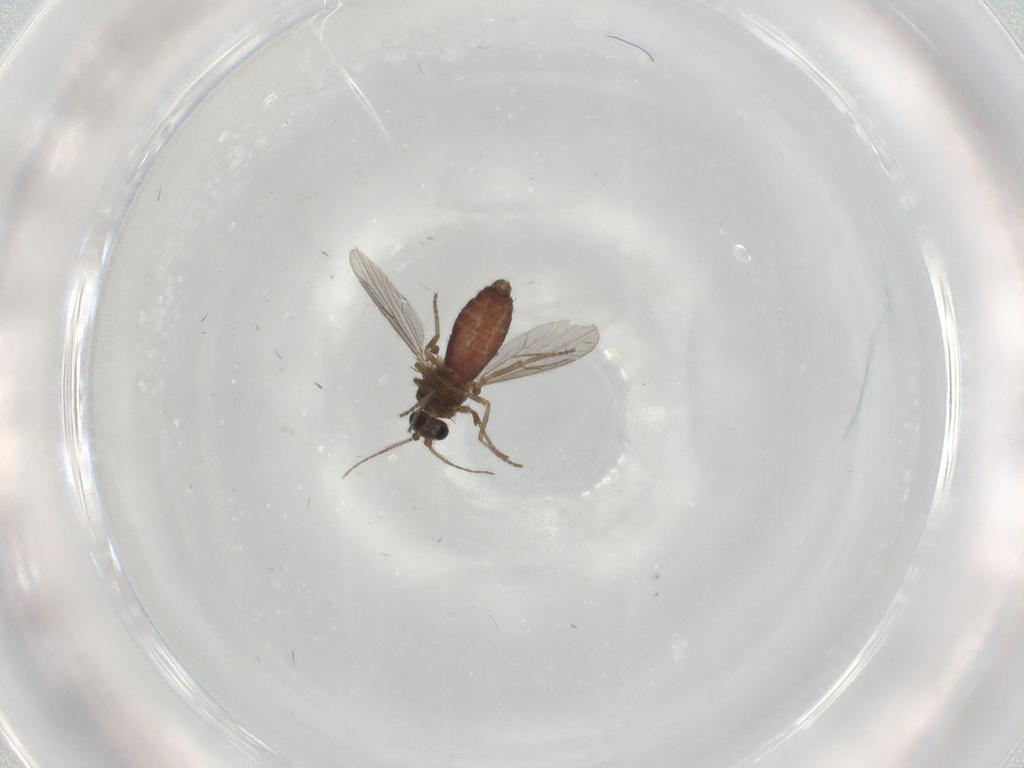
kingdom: Animalia
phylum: Arthropoda
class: Insecta
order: Diptera
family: Ceratopogonidae
